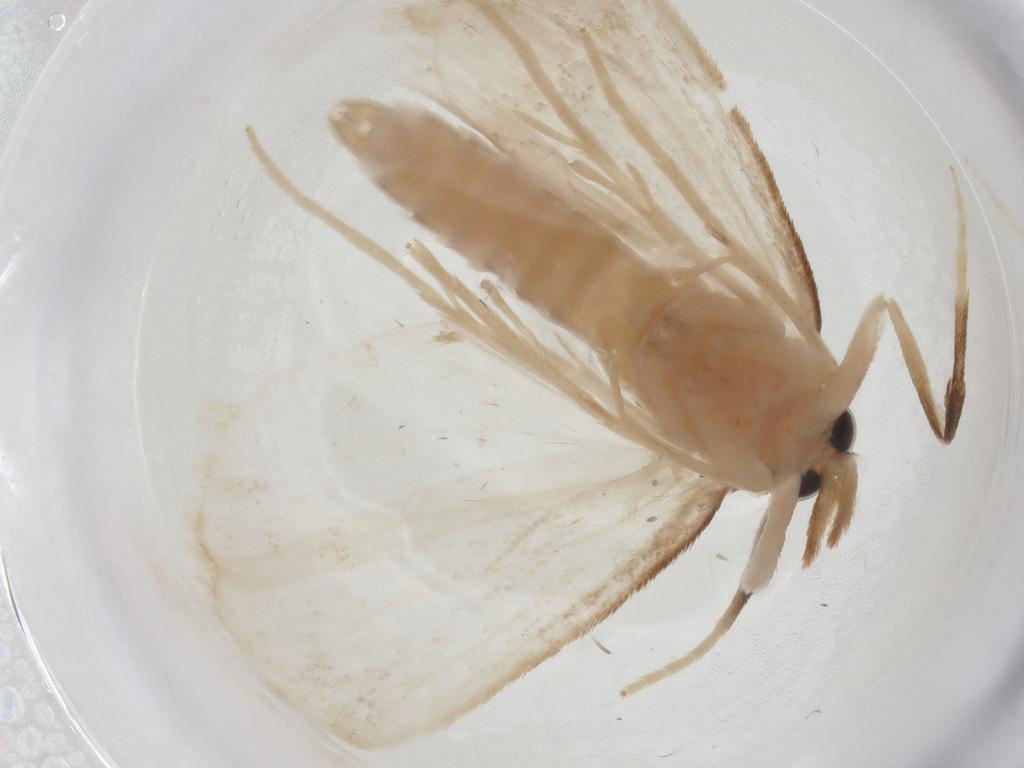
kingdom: Animalia
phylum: Arthropoda
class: Insecta
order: Lepidoptera
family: Crambidae
